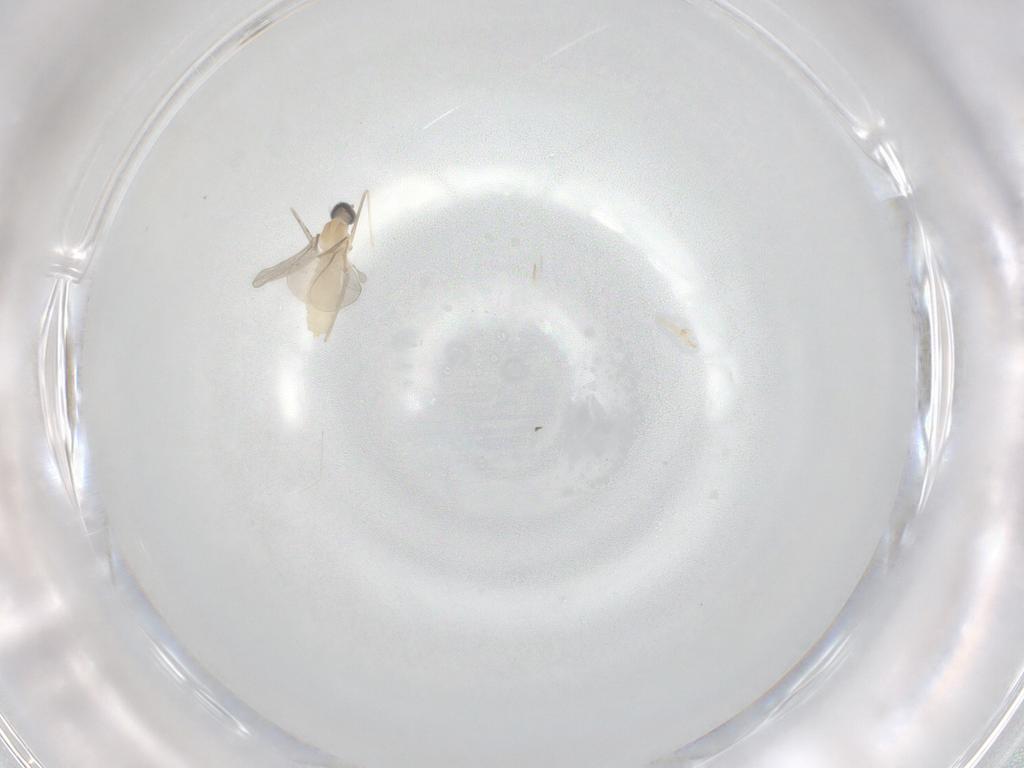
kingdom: Animalia
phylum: Arthropoda
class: Insecta
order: Diptera
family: Cecidomyiidae
